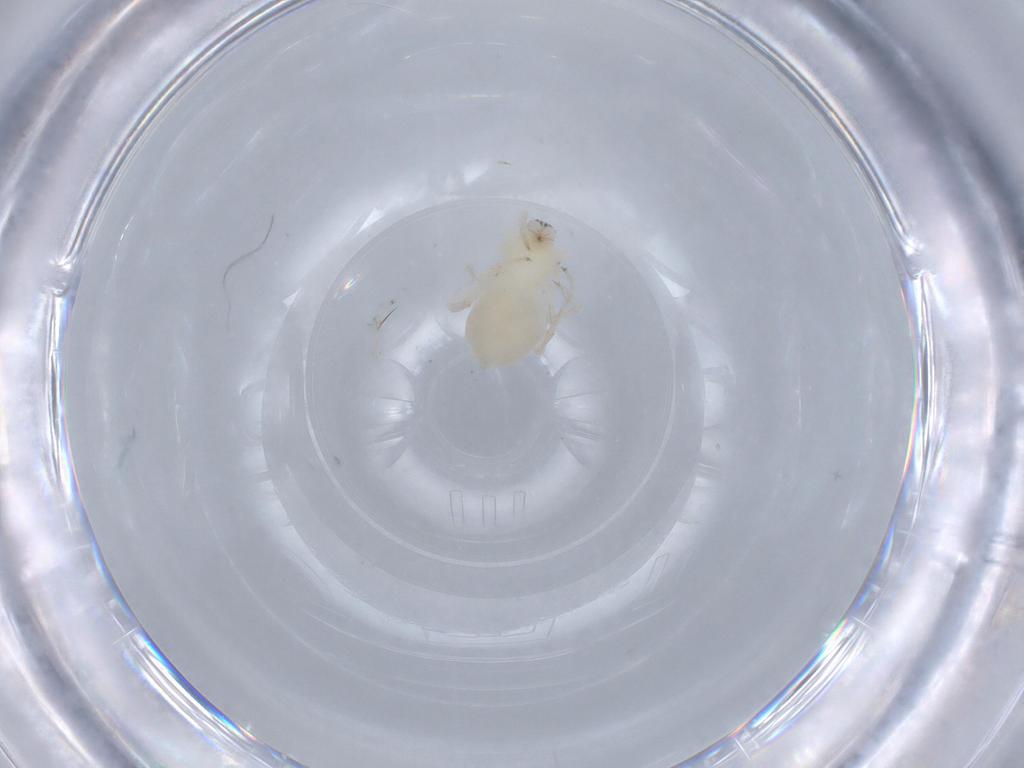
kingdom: Animalia
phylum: Arthropoda
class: Arachnida
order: Araneae
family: Anyphaenidae
